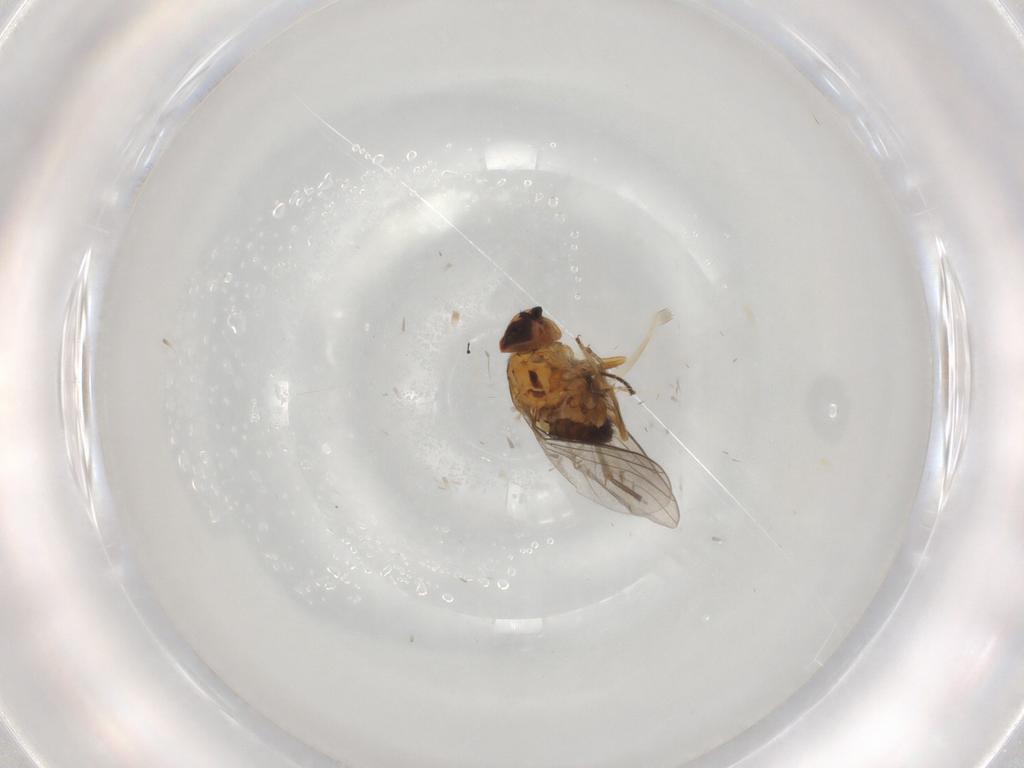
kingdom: Animalia
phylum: Arthropoda
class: Insecta
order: Diptera
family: Chloropidae
